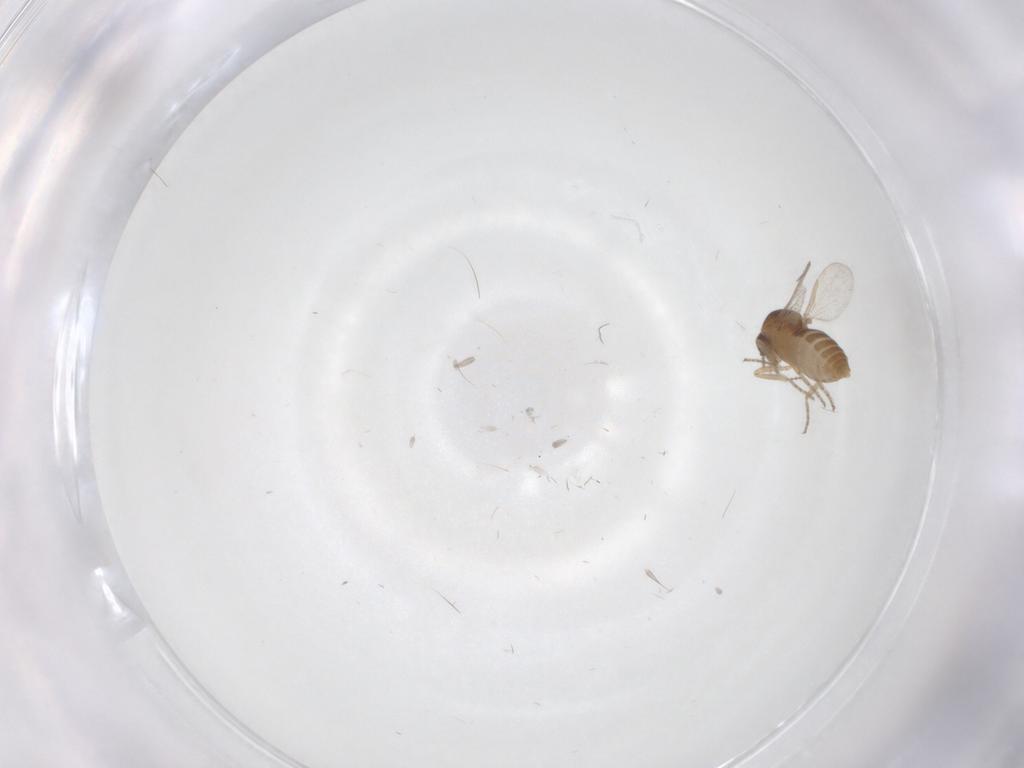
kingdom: Animalia
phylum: Arthropoda
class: Insecta
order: Diptera
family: Ceratopogonidae
